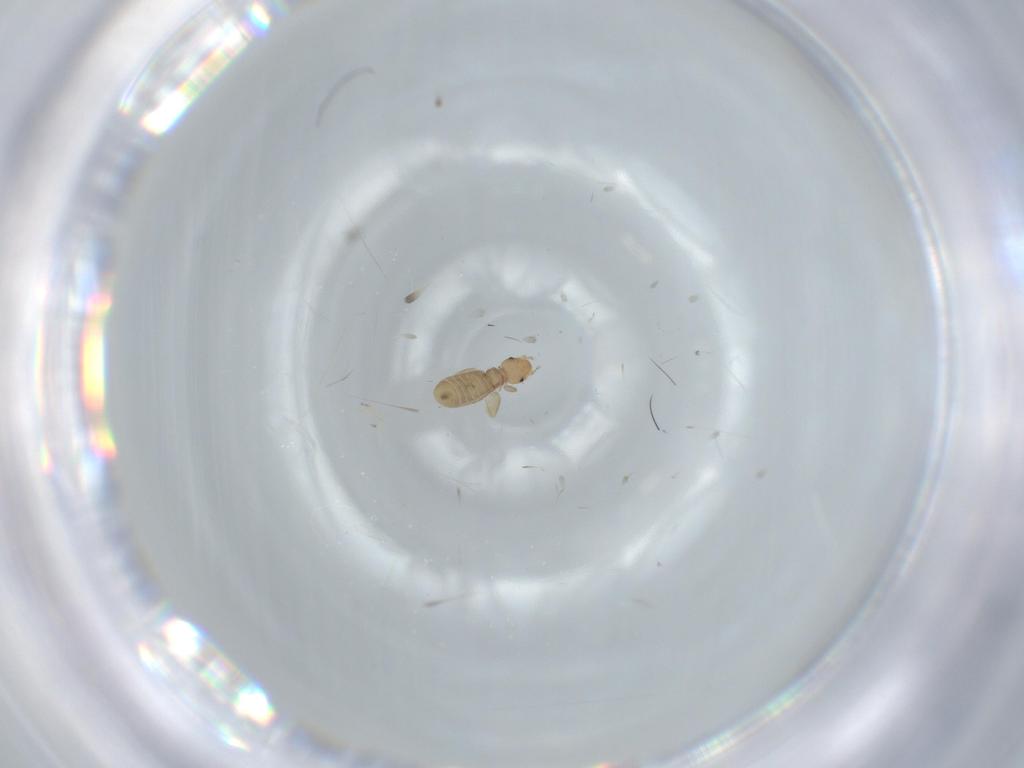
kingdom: Animalia
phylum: Arthropoda
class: Insecta
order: Psocodea
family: Liposcelididae
